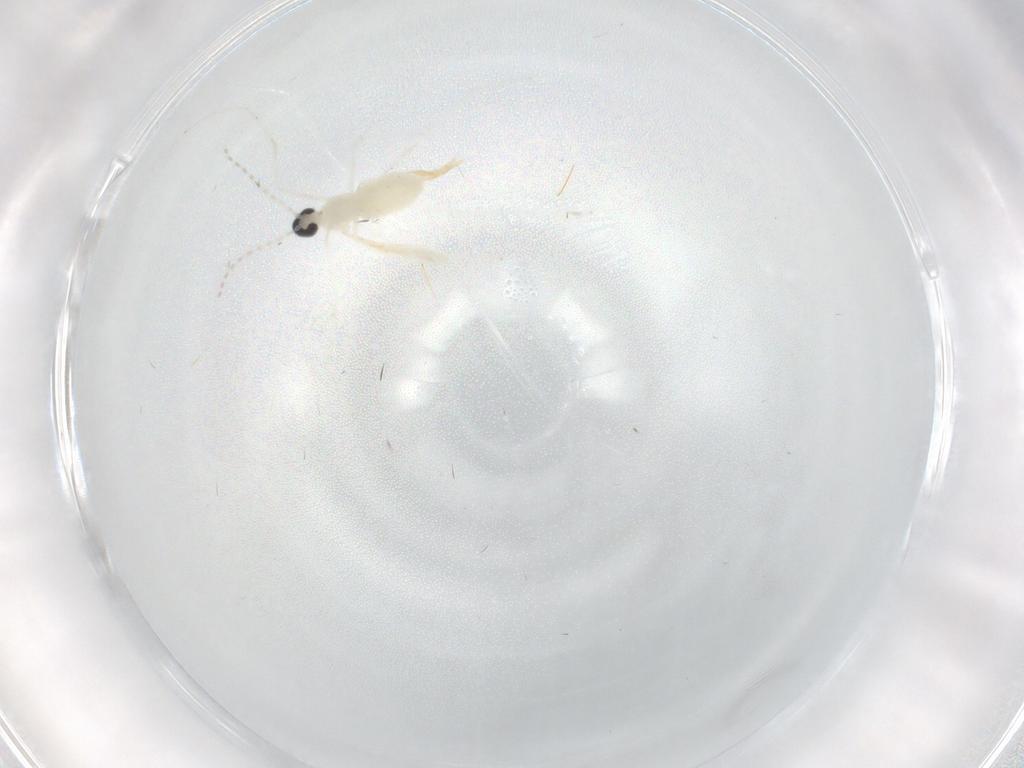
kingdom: Animalia
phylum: Arthropoda
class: Insecta
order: Diptera
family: Cecidomyiidae
